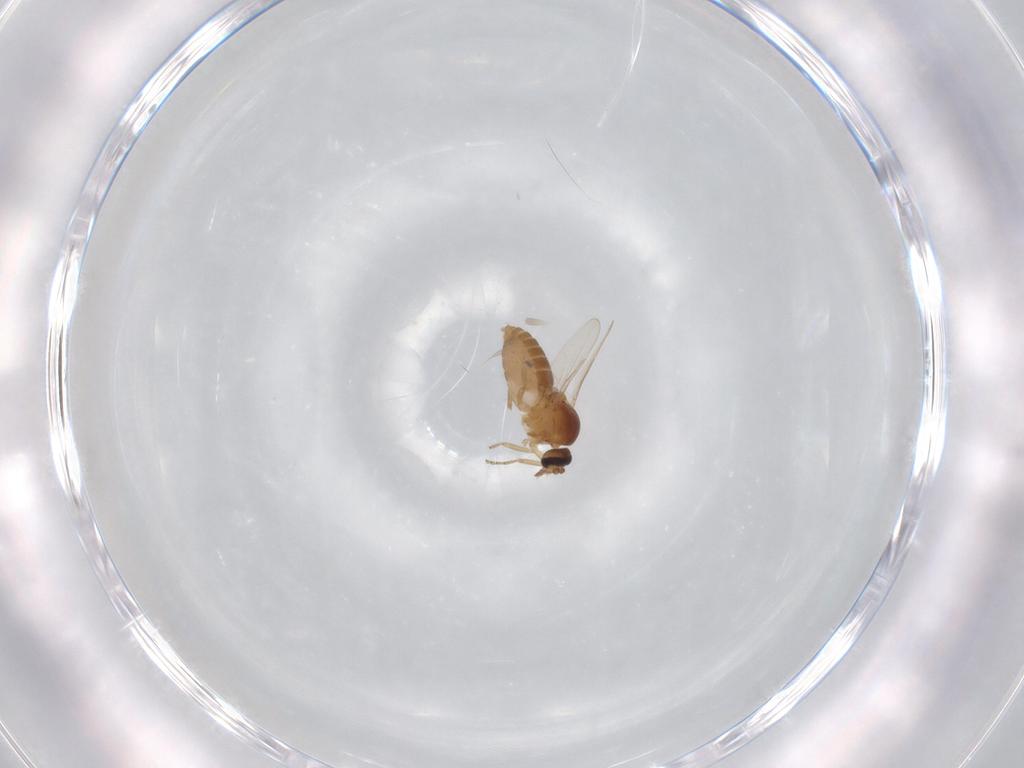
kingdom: Animalia
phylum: Arthropoda
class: Insecta
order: Diptera
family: Ceratopogonidae
